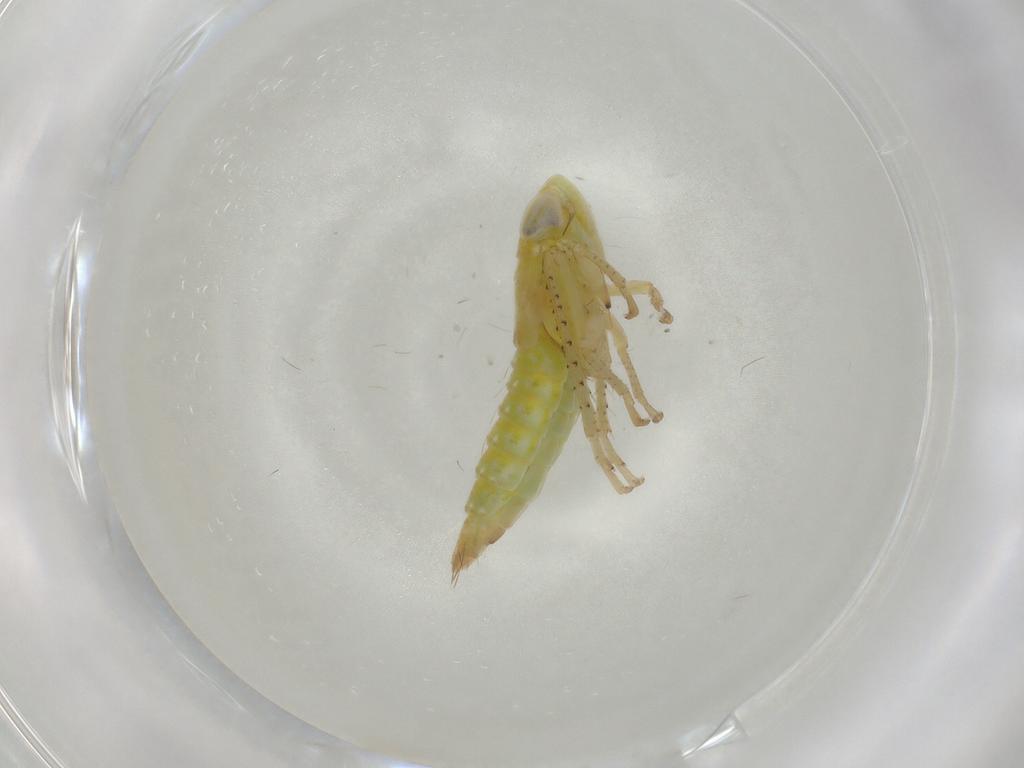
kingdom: Animalia
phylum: Arthropoda
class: Insecta
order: Hemiptera
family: Cicadellidae
